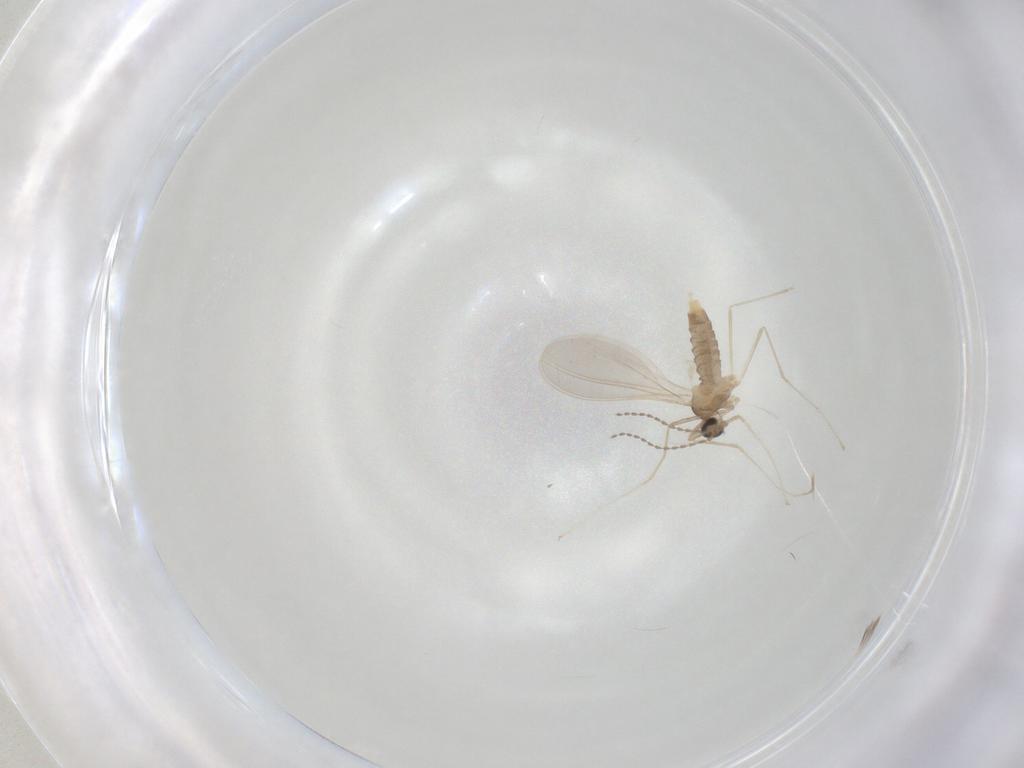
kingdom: Animalia
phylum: Arthropoda
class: Insecta
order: Diptera
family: Cecidomyiidae
